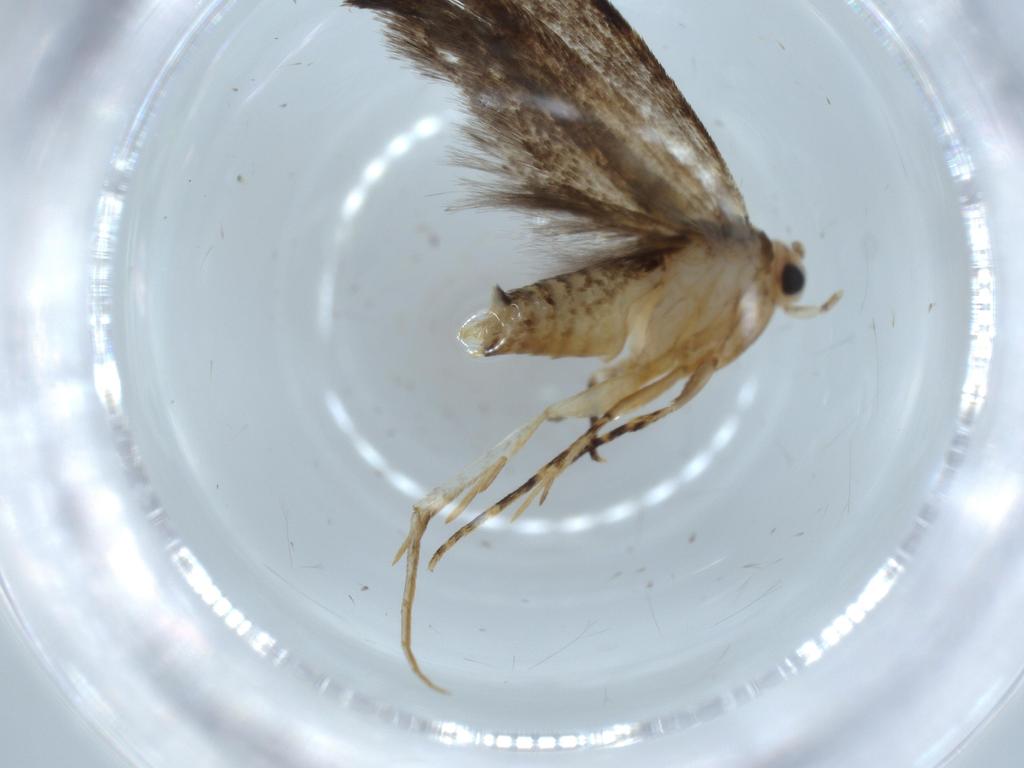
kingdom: Animalia
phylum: Arthropoda
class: Insecta
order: Lepidoptera
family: Tineidae
